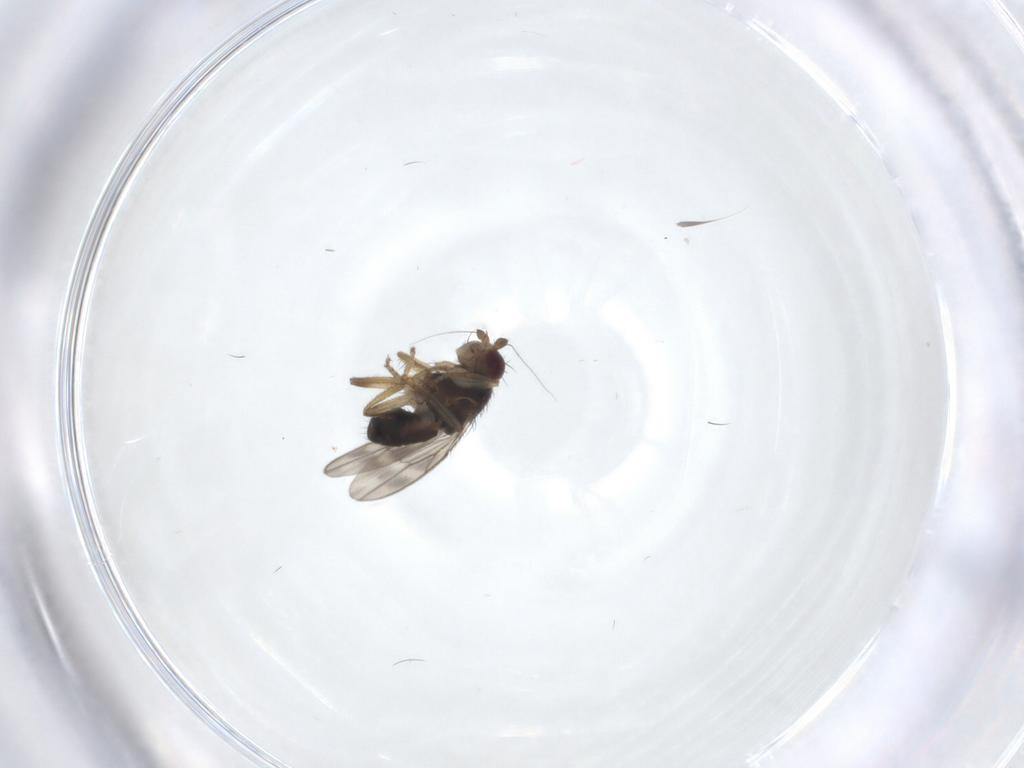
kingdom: Animalia
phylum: Arthropoda
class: Insecta
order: Diptera
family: Sphaeroceridae
